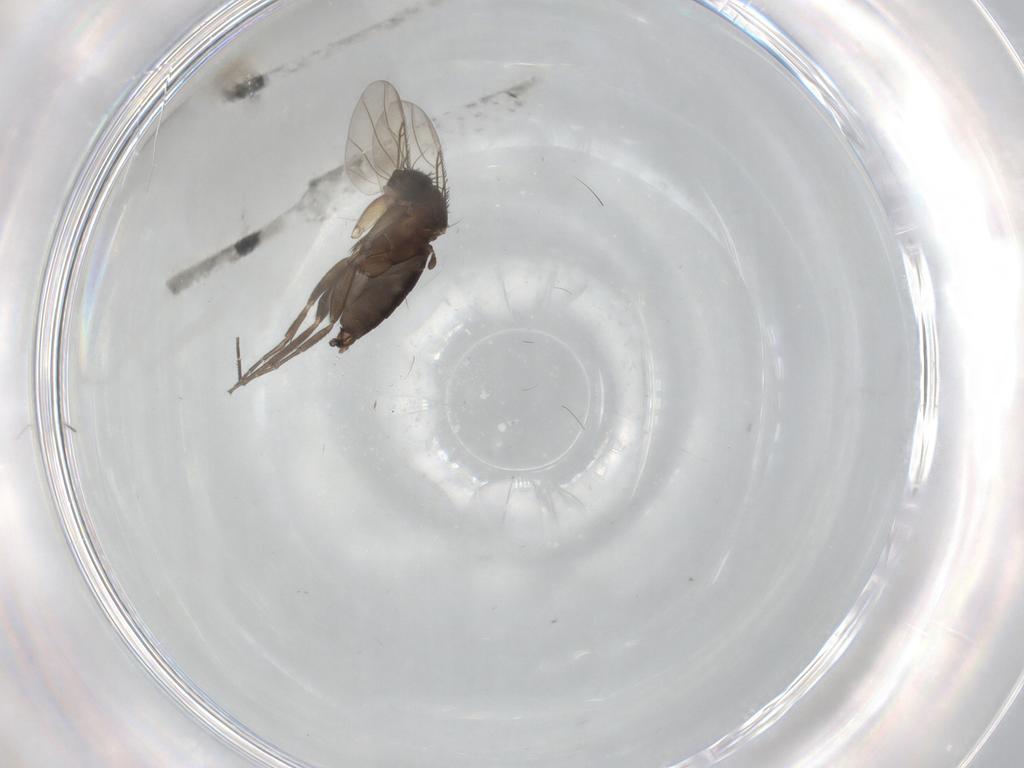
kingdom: Animalia
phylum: Arthropoda
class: Insecta
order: Diptera
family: Phoridae
